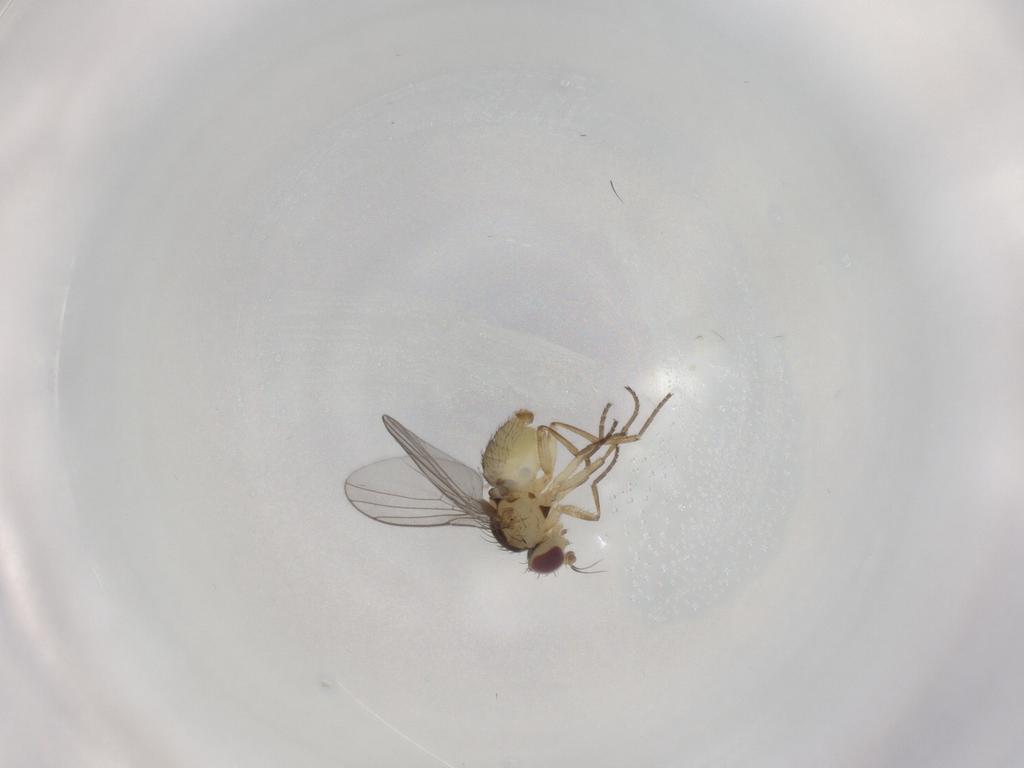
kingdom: Animalia
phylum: Arthropoda
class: Insecta
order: Diptera
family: Agromyzidae
